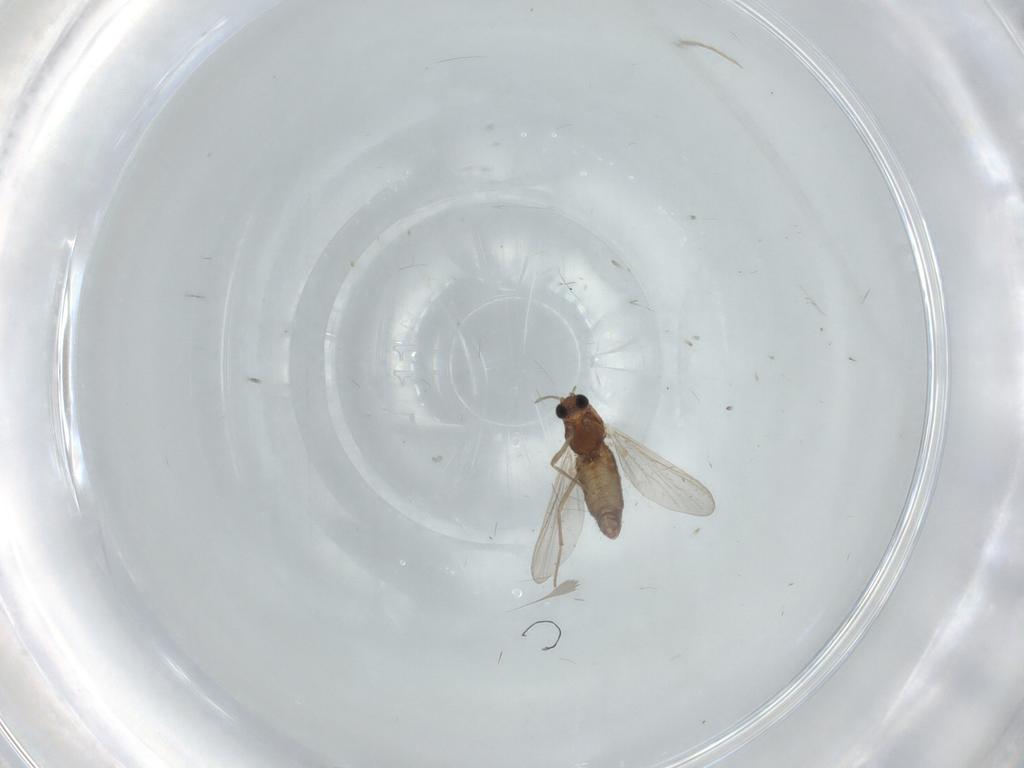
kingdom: Animalia
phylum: Arthropoda
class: Insecta
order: Diptera
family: Chironomidae
